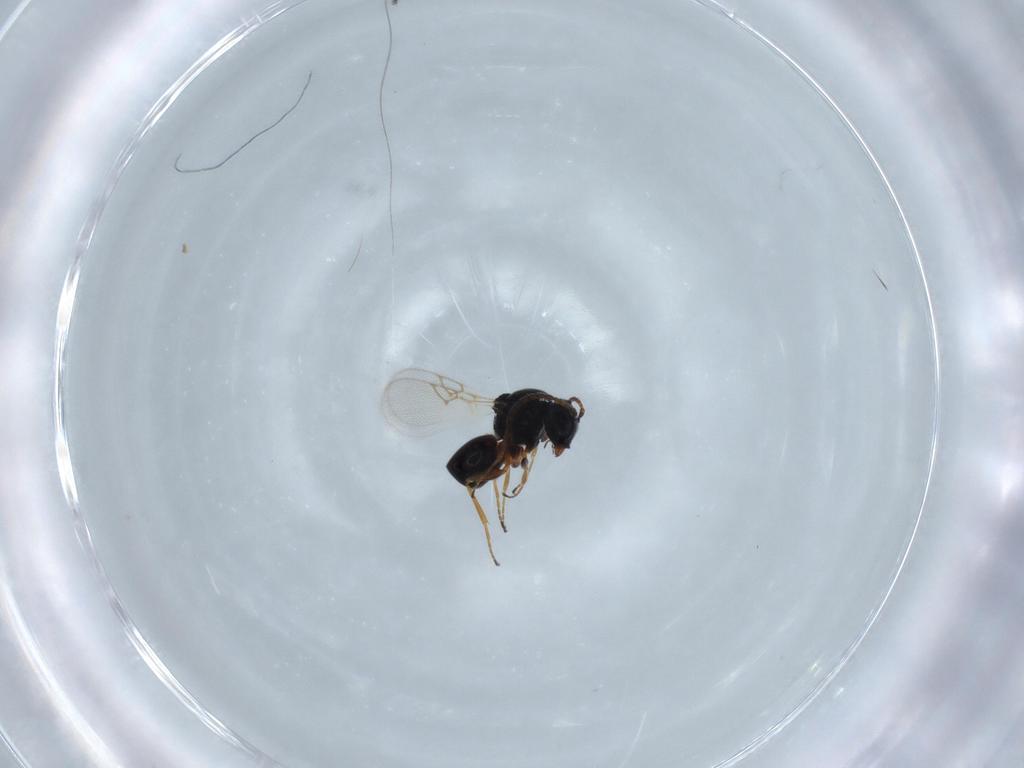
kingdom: Animalia
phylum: Arthropoda
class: Insecta
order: Hymenoptera
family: Figitidae
